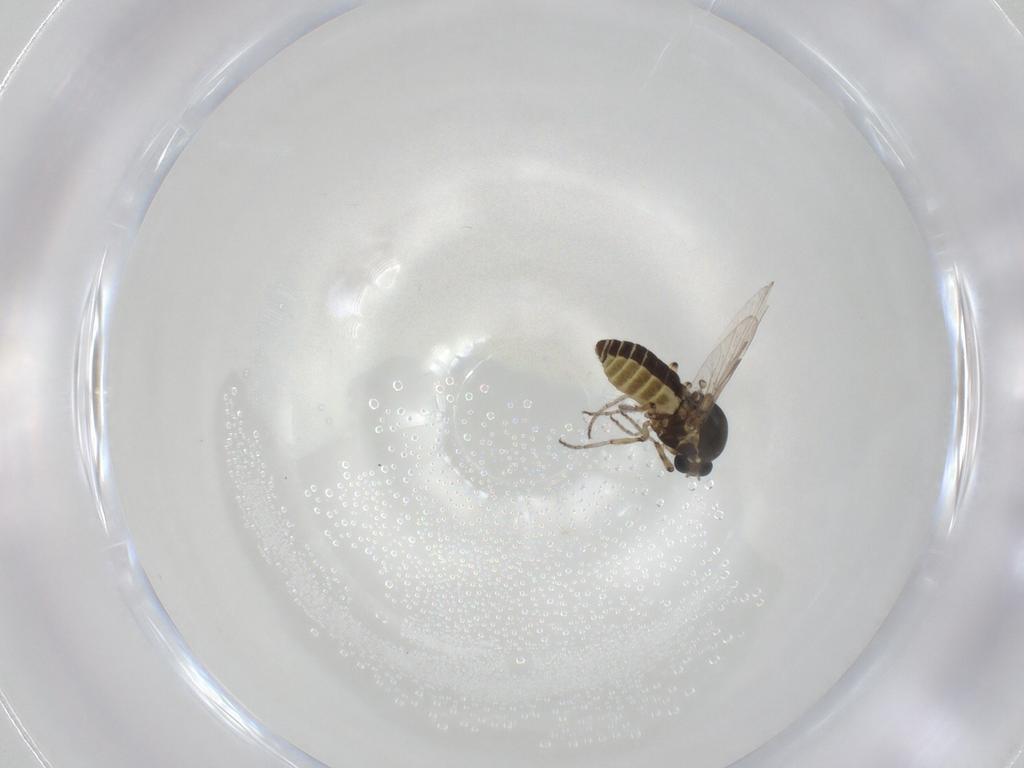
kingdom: Animalia
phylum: Arthropoda
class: Insecta
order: Diptera
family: Ceratopogonidae
